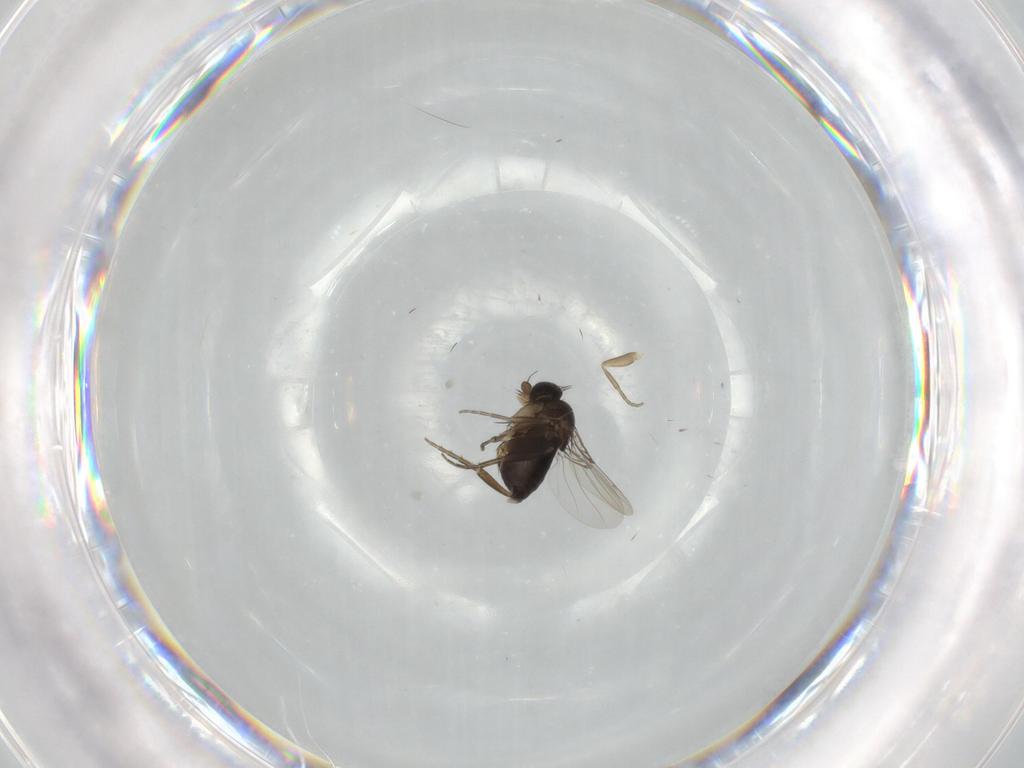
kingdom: Animalia
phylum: Arthropoda
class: Insecta
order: Diptera
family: Phoridae
